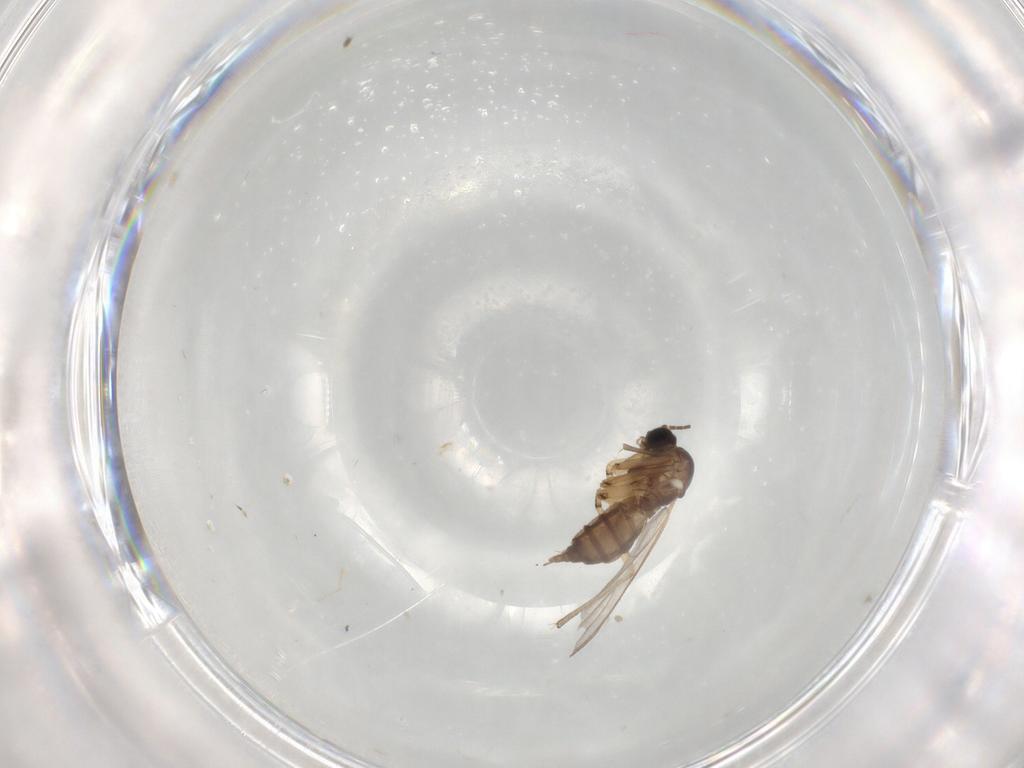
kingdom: Animalia
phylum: Arthropoda
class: Insecta
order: Diptera
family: Sciaridae
